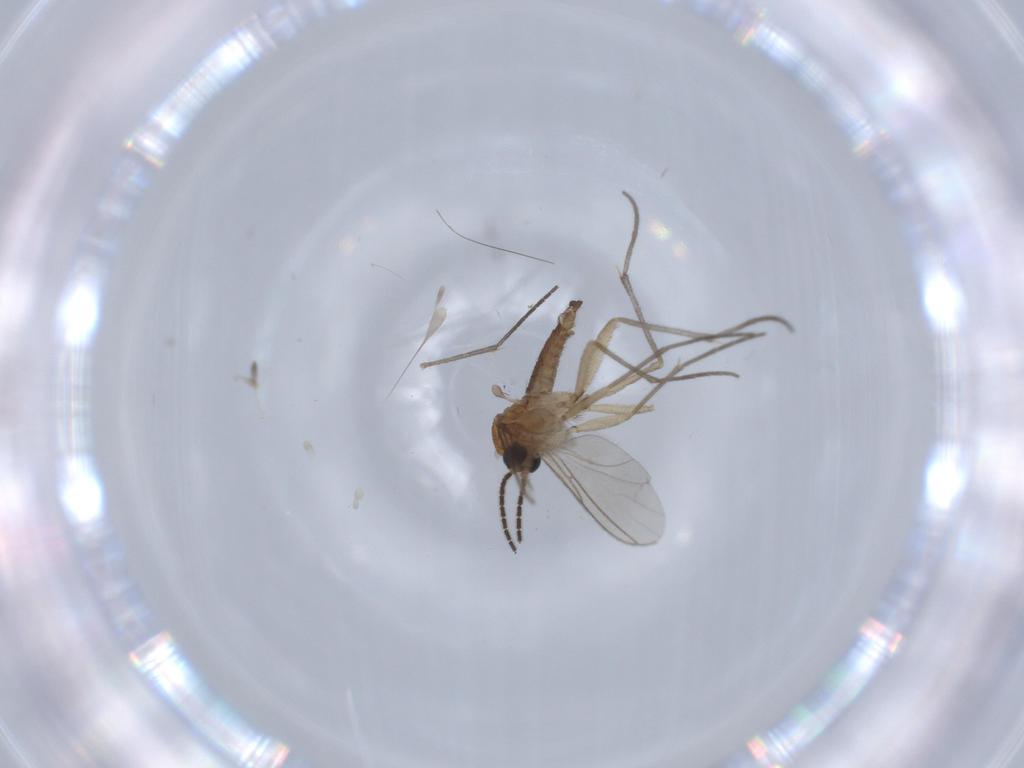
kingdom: Animalia
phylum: Arthropoda
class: Insecta
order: Diptera
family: Sciaridae
